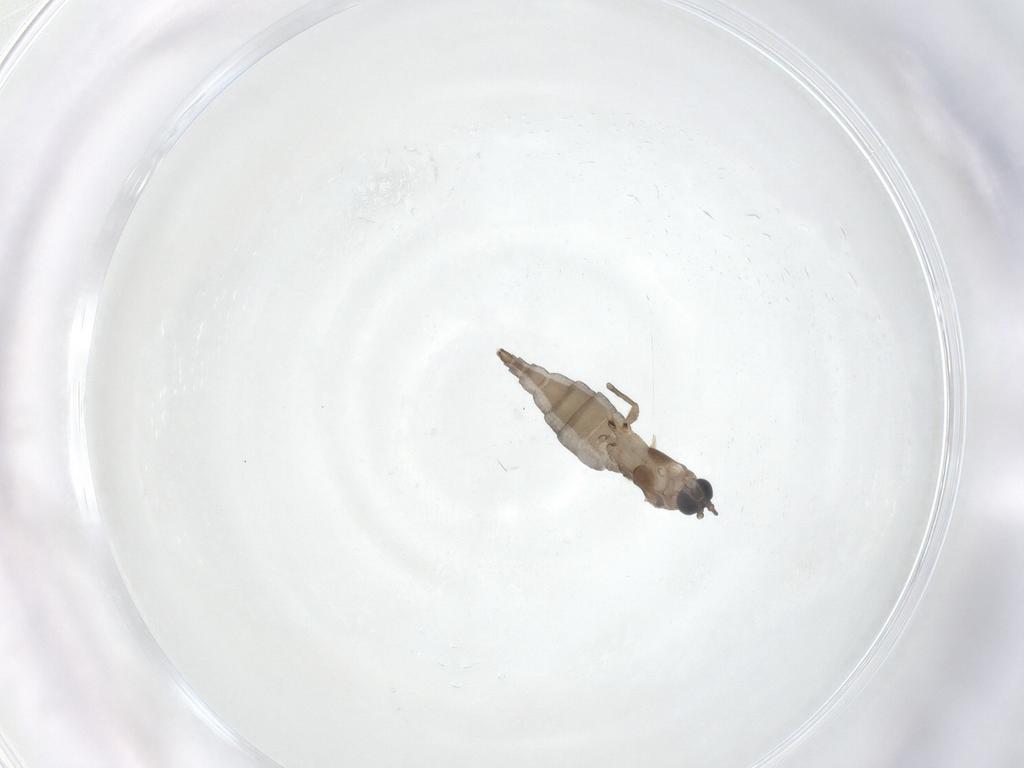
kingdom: Animalia
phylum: Arthropoda
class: Insecta
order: Diptera
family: Sciaridae
